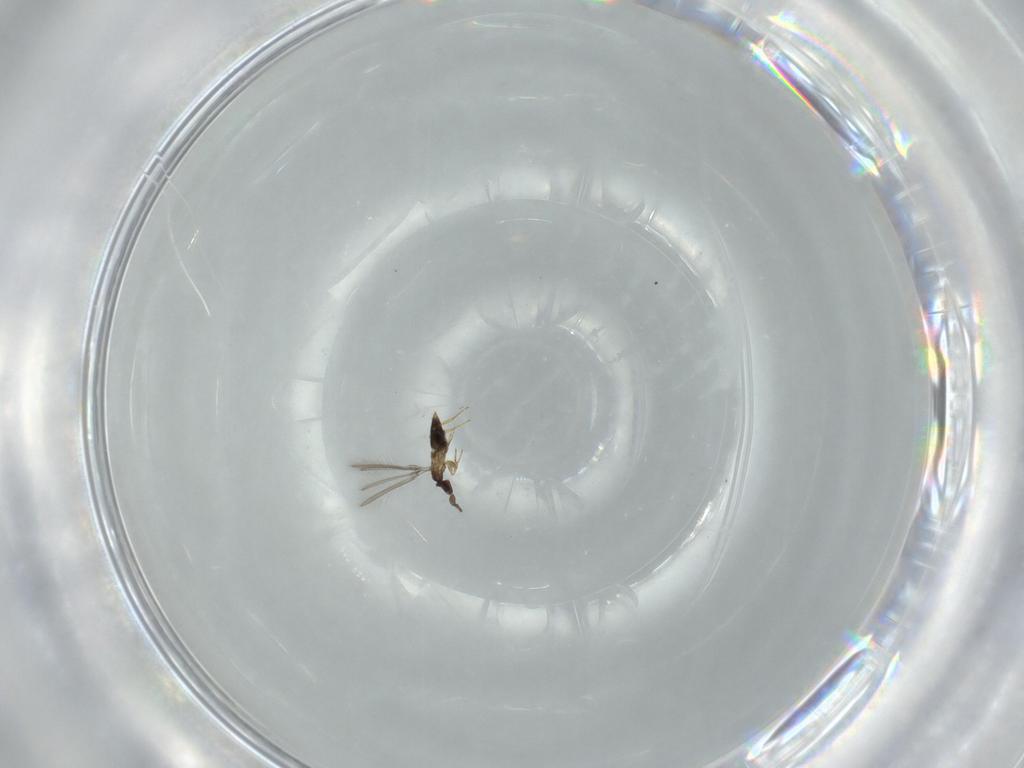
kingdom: Animalia
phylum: Arthropoda
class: Insecta
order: Hymenoptera
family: Mymaridae
